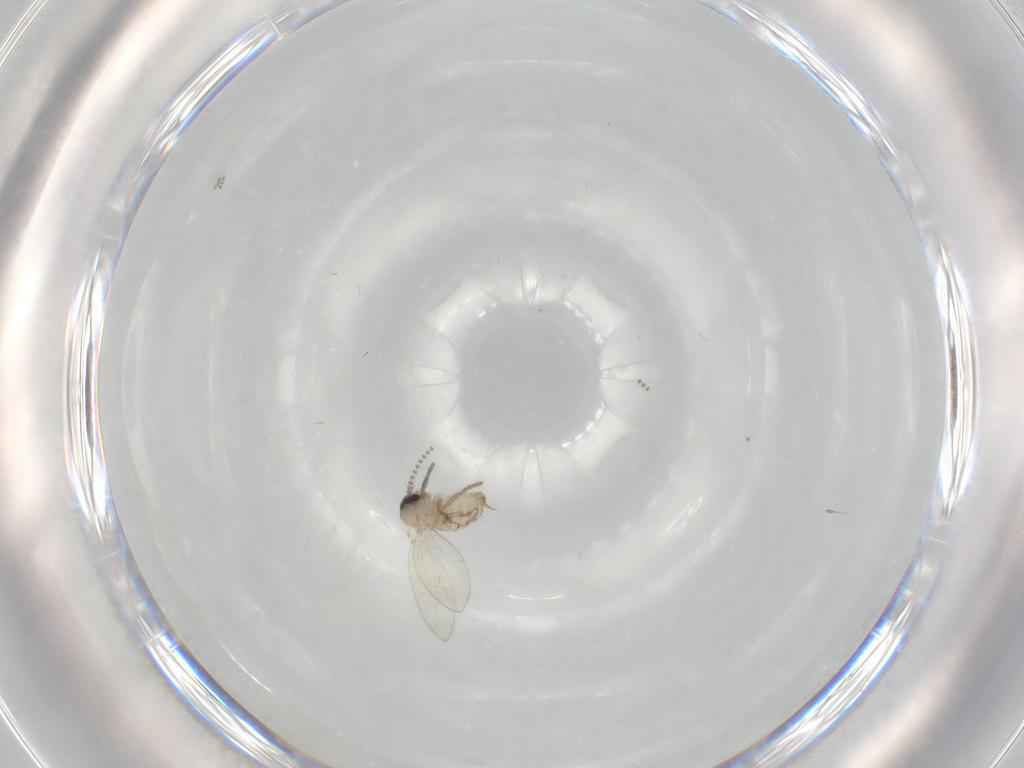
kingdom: Animalia
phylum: Arthropoda
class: Insecta
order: Diptera
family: Psychodidae
